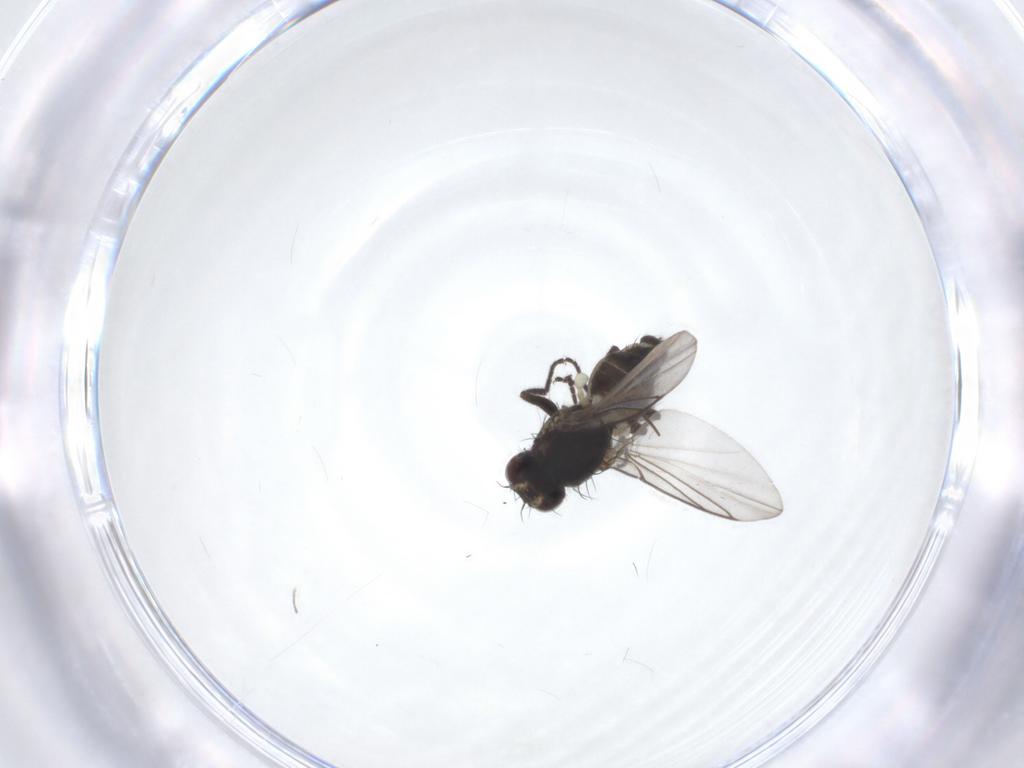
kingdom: Animalia
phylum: Arthropoda
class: Insecta
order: Diptera
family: Agromyzidae
